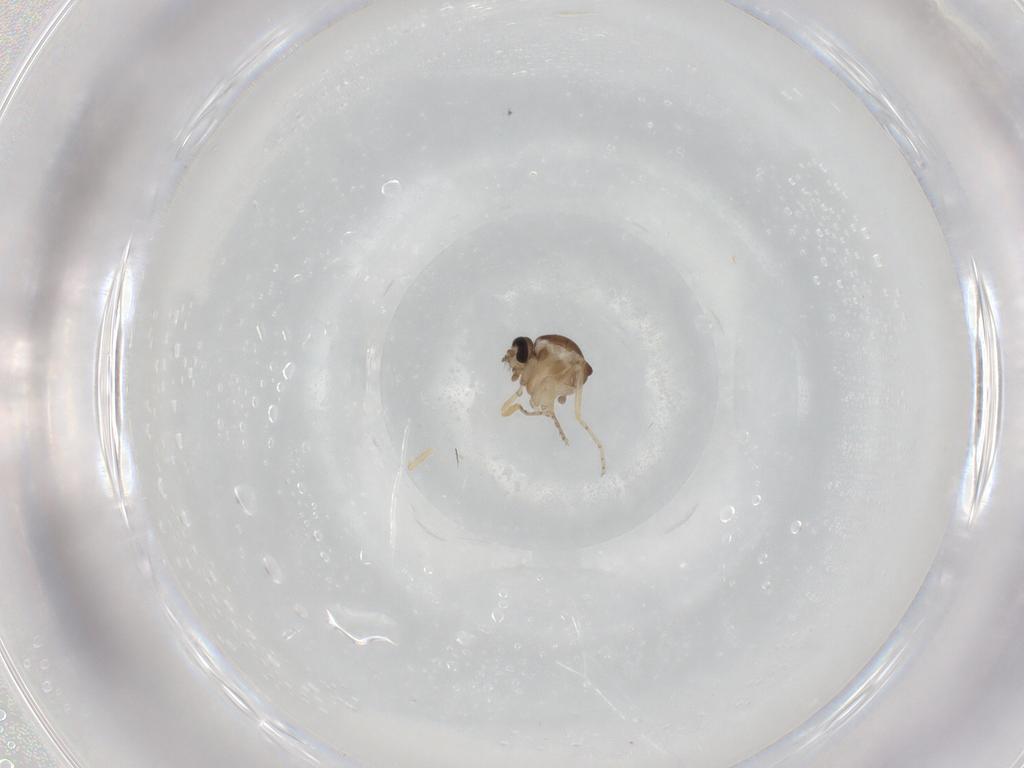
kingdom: Animalia
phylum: Arthropoda
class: Insecta
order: Diptera
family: Ceratopogonidae
